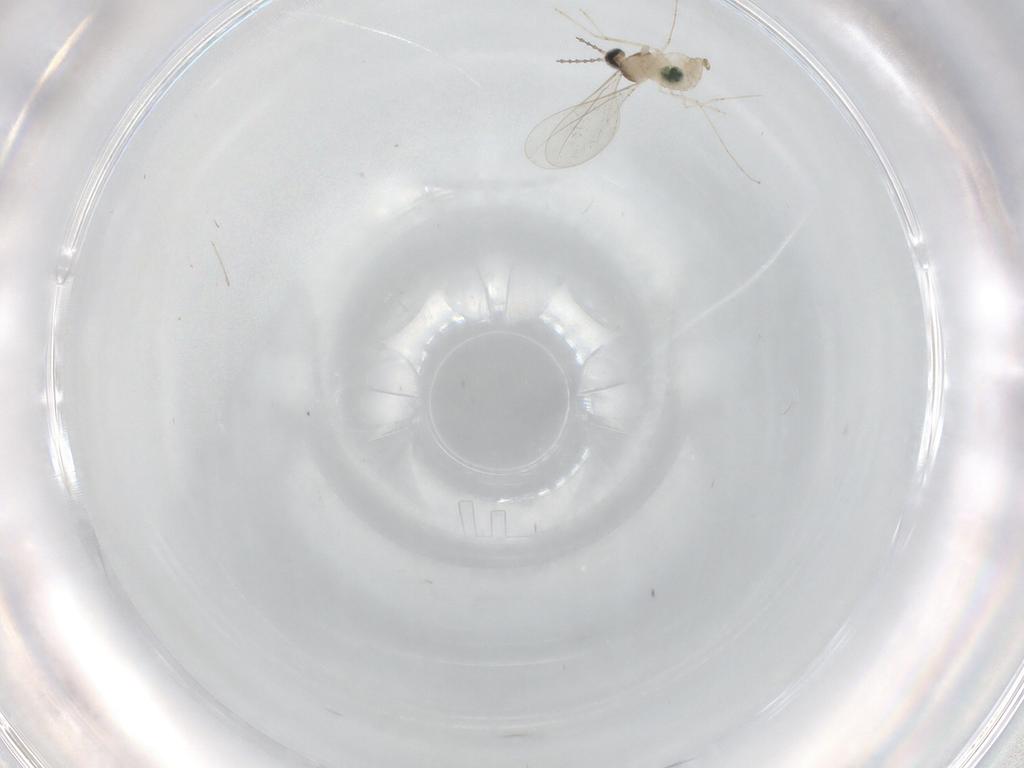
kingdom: Animalia
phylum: Arthropoda
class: Insecta
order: Diptera
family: Cecidomyiidae
